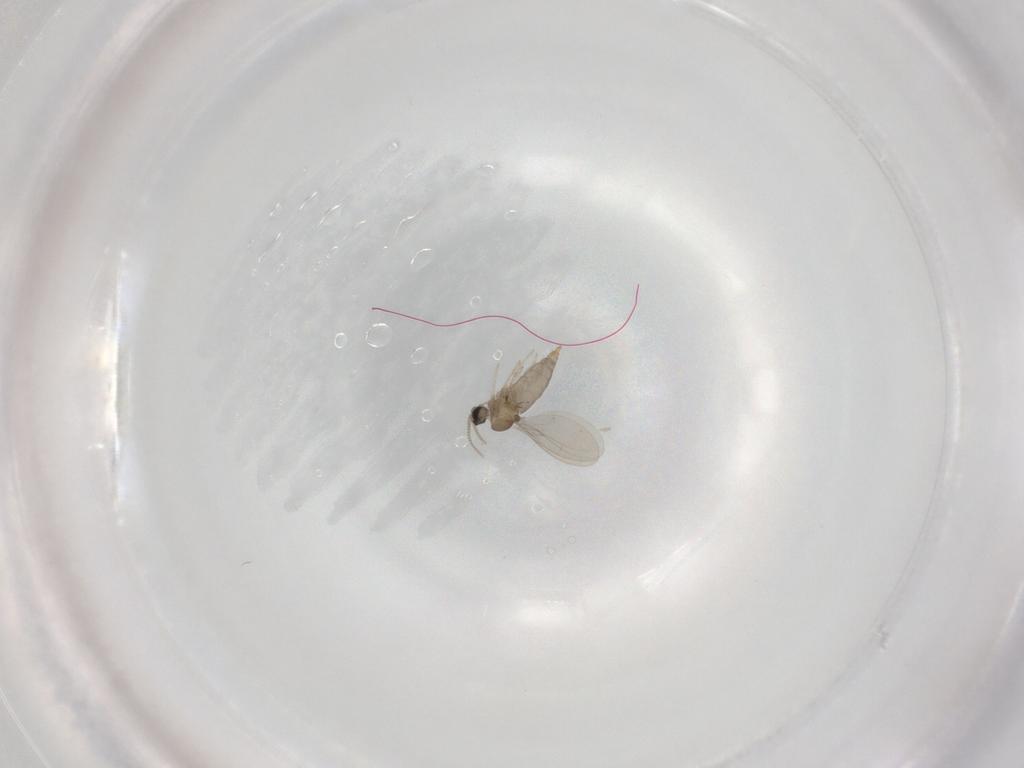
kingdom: Animalia
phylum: Arthropoda
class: Insecta
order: Diptera
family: Cecidomyiidae
